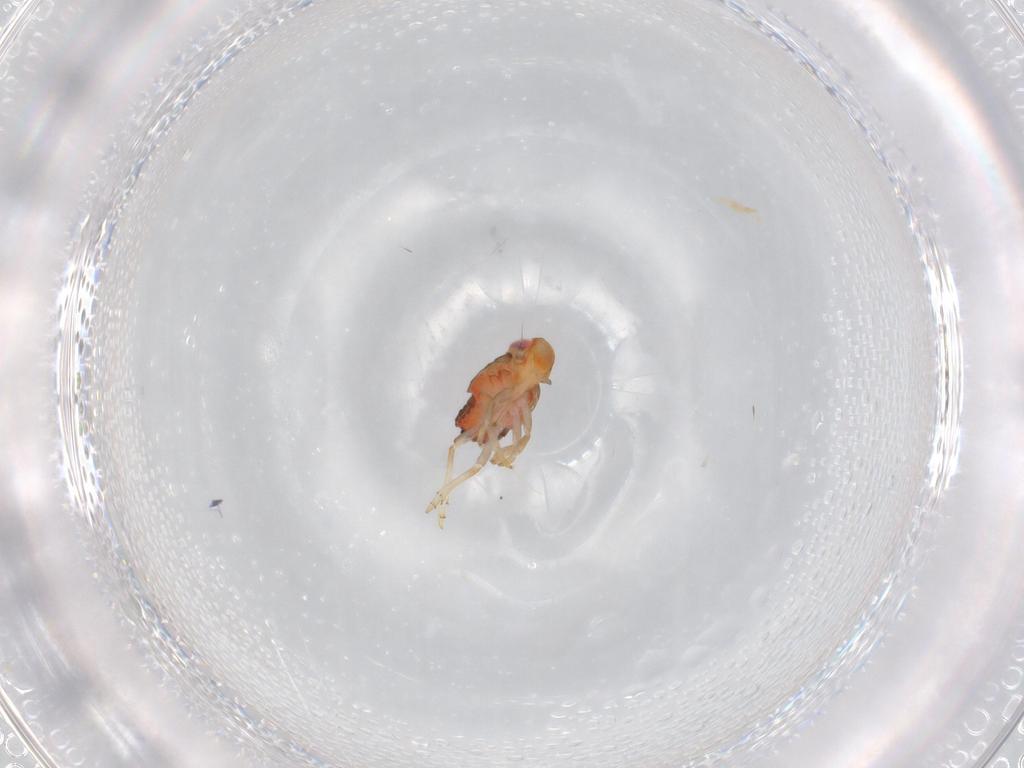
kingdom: Animalia
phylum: Arthropoda
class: Insecta
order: Hemiptera
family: Issidae
